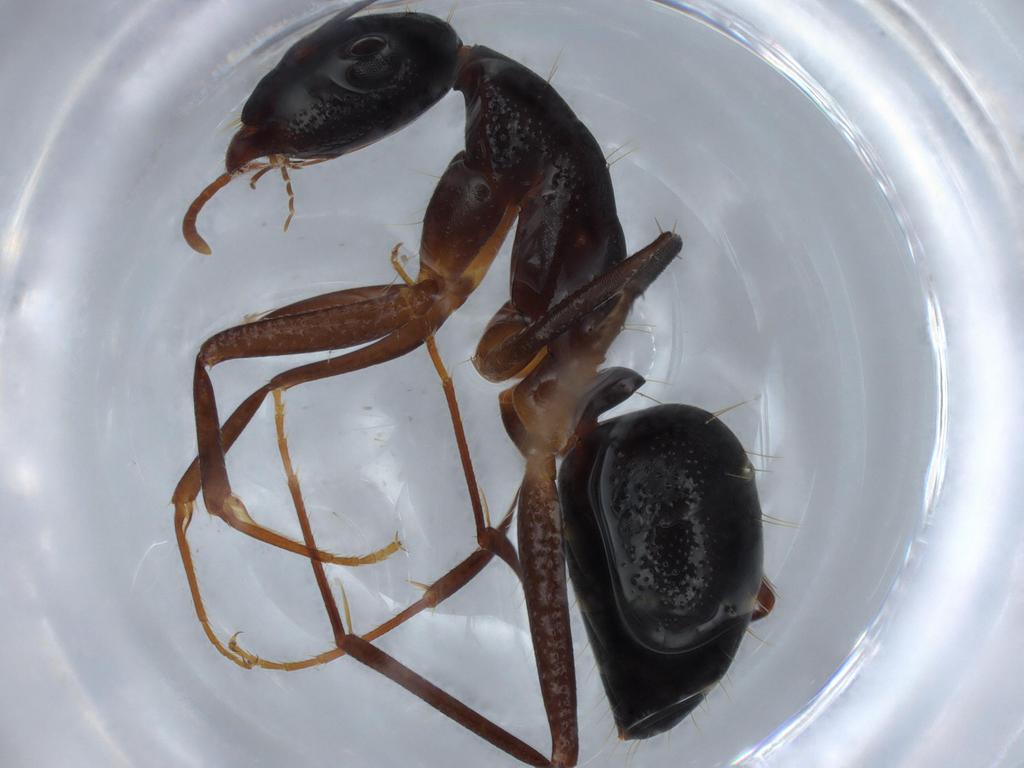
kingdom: Animalia
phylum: Arthropoda
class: Insecta
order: Hymenoptera
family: Formicidae
